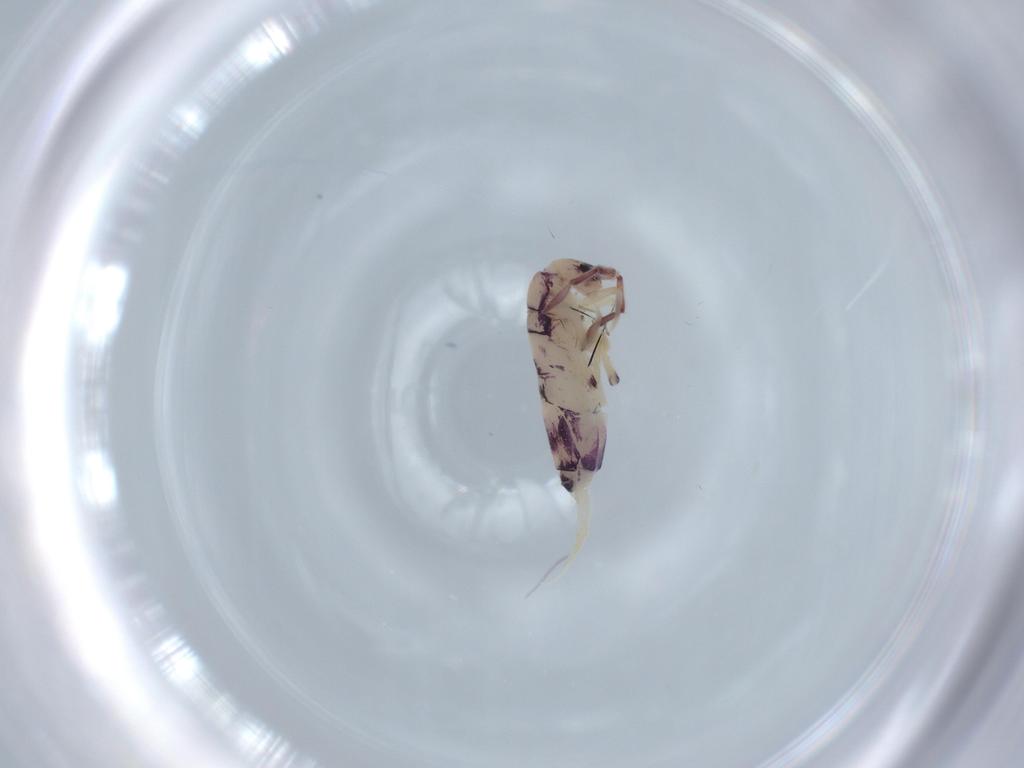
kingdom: Animalia
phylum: Arthropoda
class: Collembola
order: Entomobryomorpha
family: Entomobryidae
